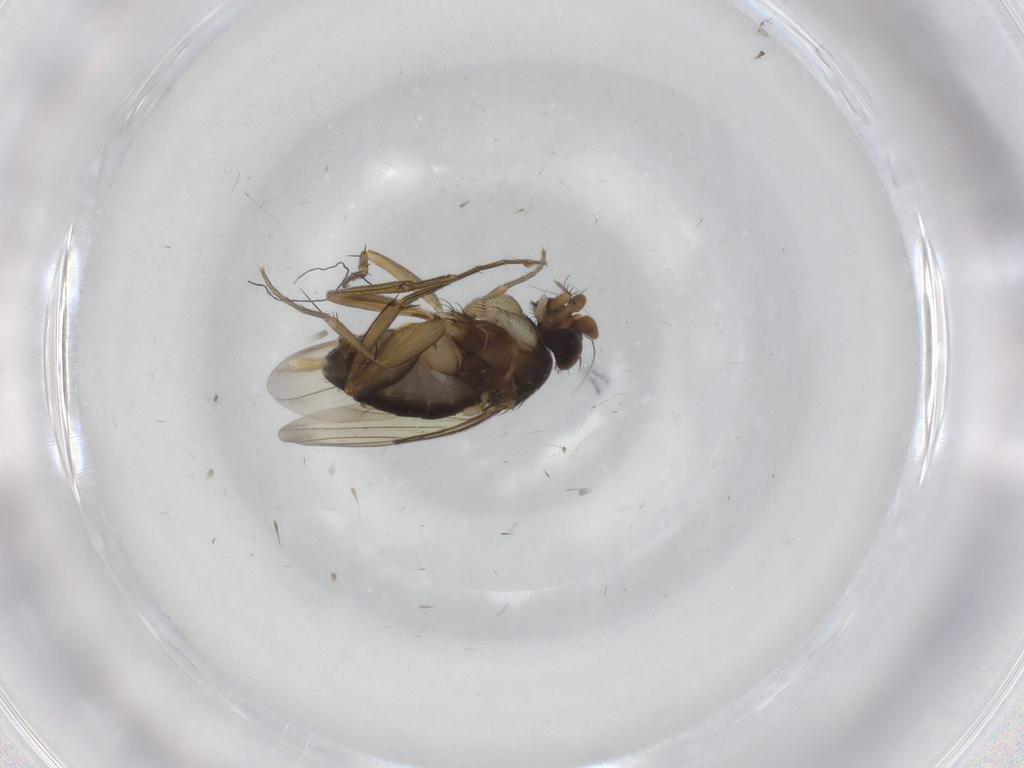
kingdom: Animalia
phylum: Arthropoda
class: Insecta
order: Diptera
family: Phoridae
